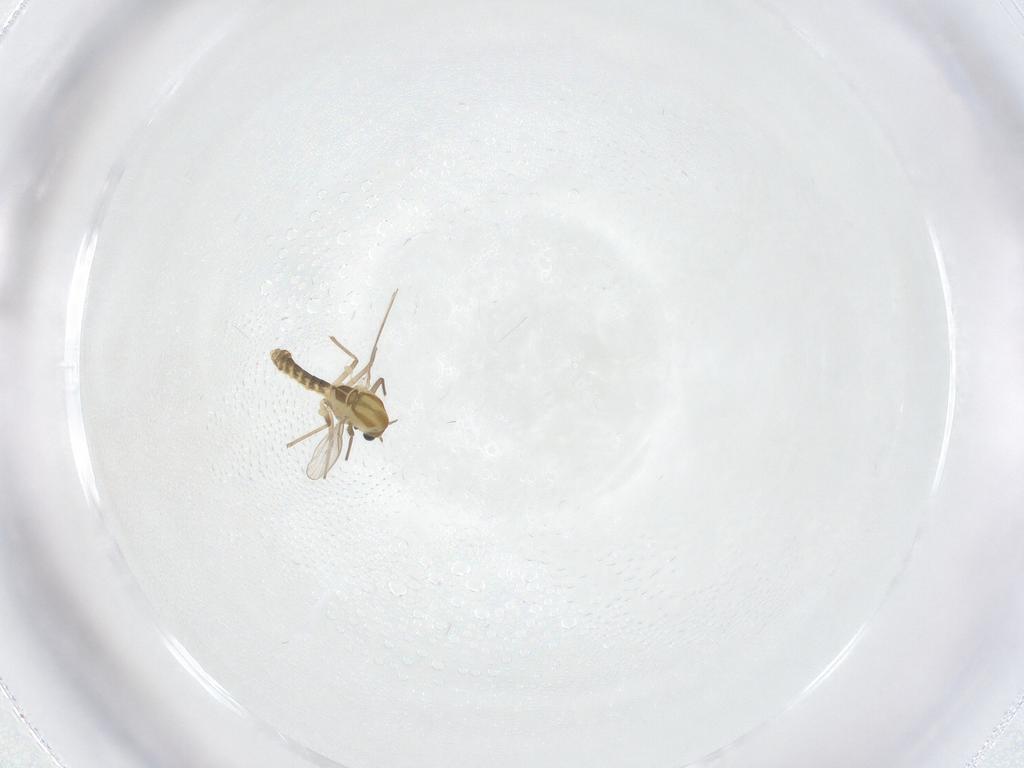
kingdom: Animalia
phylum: Arthropoda
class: Insecta
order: Diptera
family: Chironomidae
